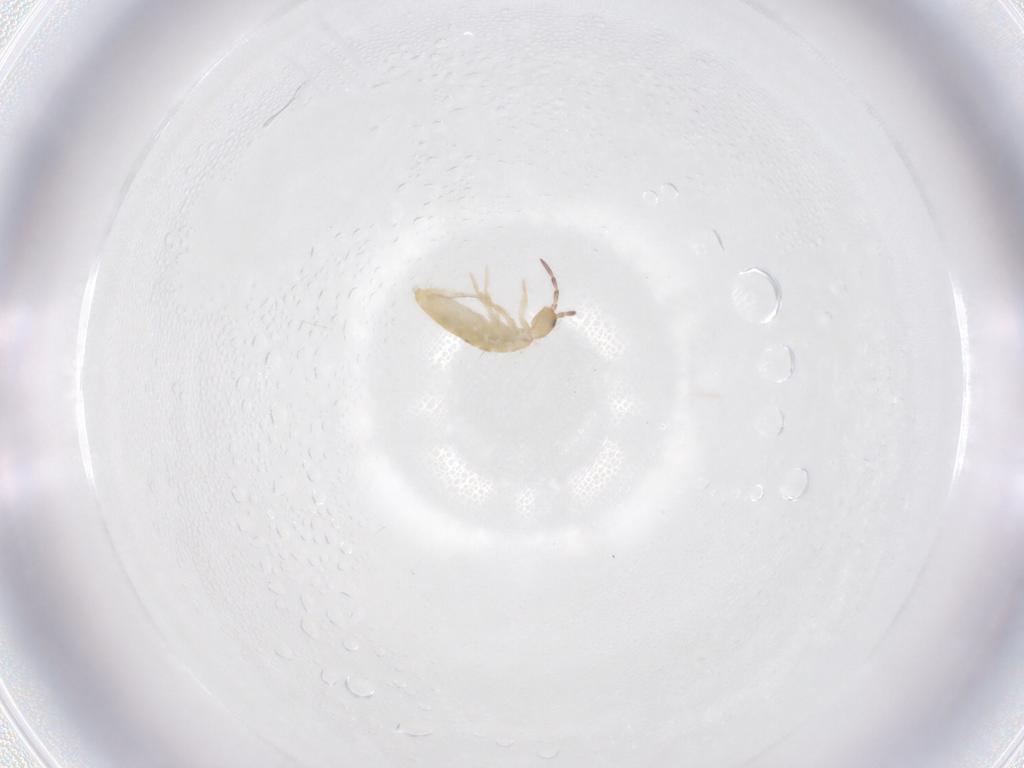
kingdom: Animalia
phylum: Arthropoda
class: Collembola
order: Entomobryomorpha
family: Entomobryidae
